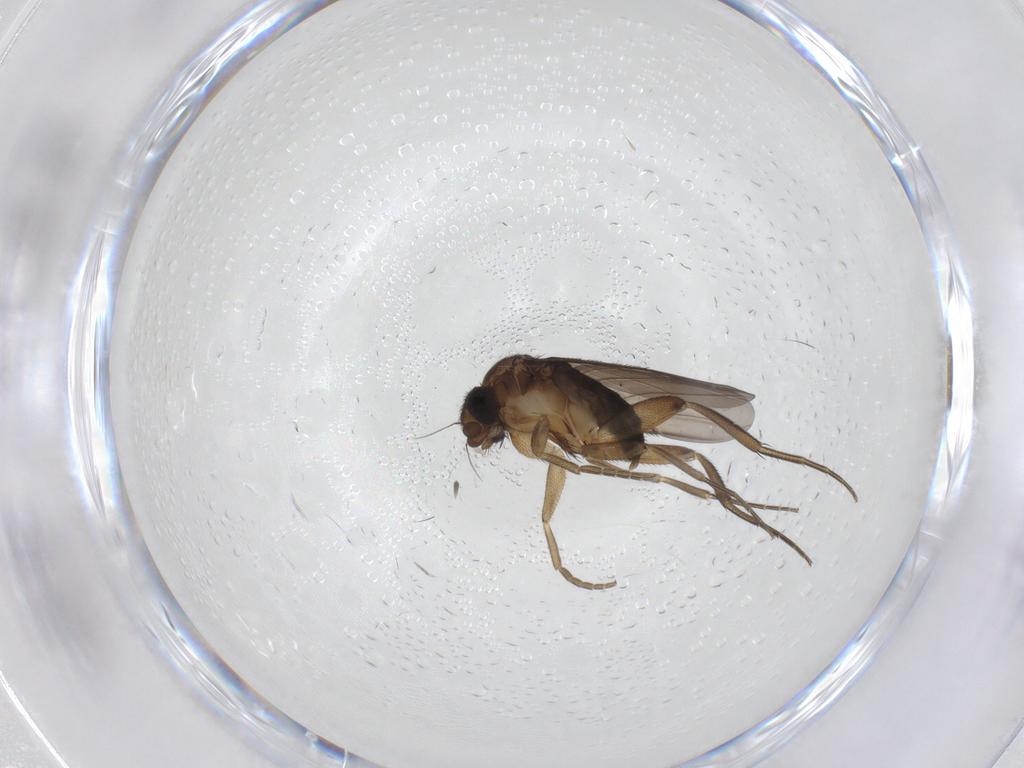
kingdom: Animalia
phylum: Arthropoda
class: Insecta
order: Diptera
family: Phoridae
